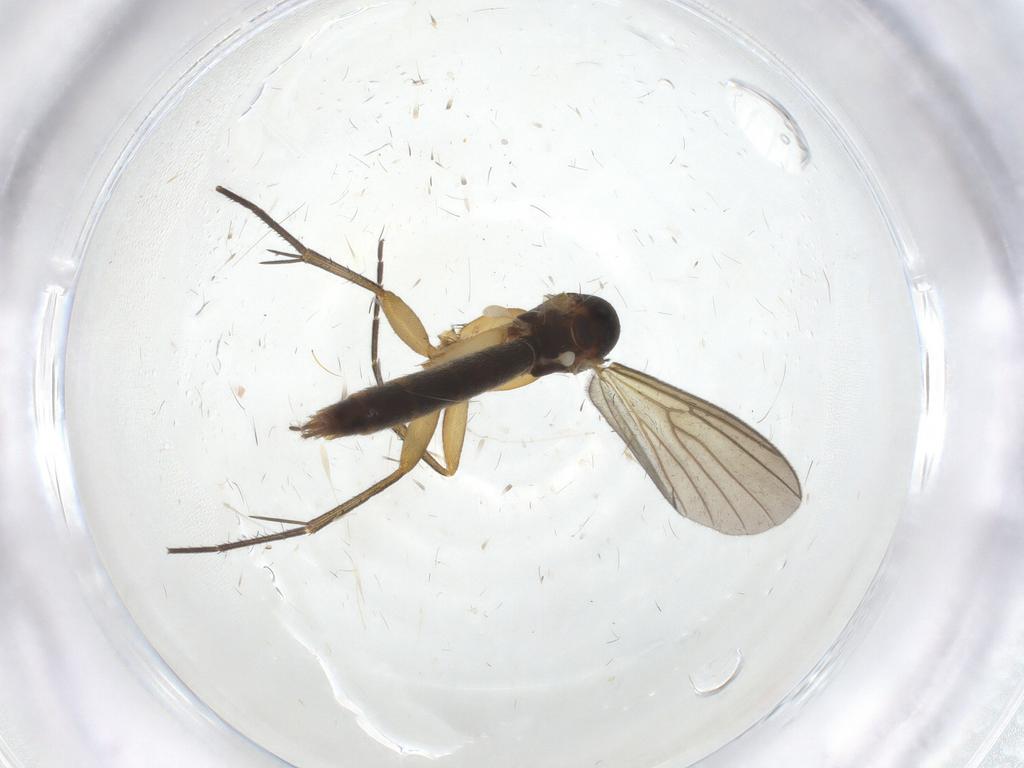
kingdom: Animalia
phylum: Arthropoda
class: Insecta
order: Diptera
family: Mycetophilidae
